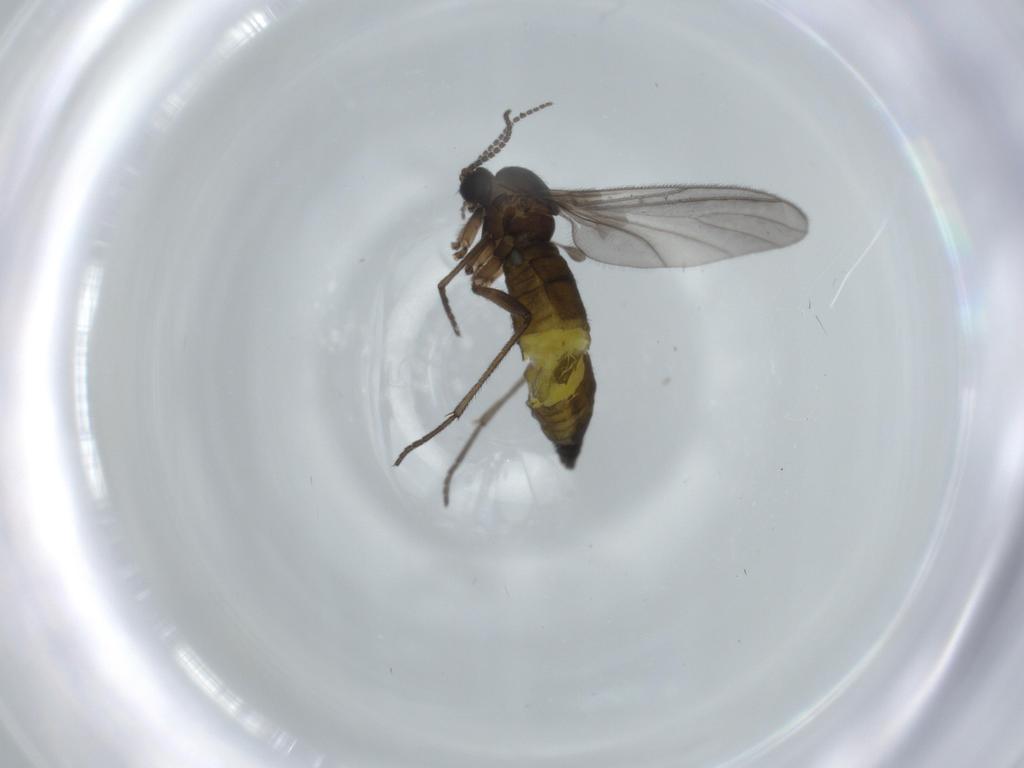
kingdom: Animalia
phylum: Arthropoda
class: Insecta
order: Diptera
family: Sciaridae
